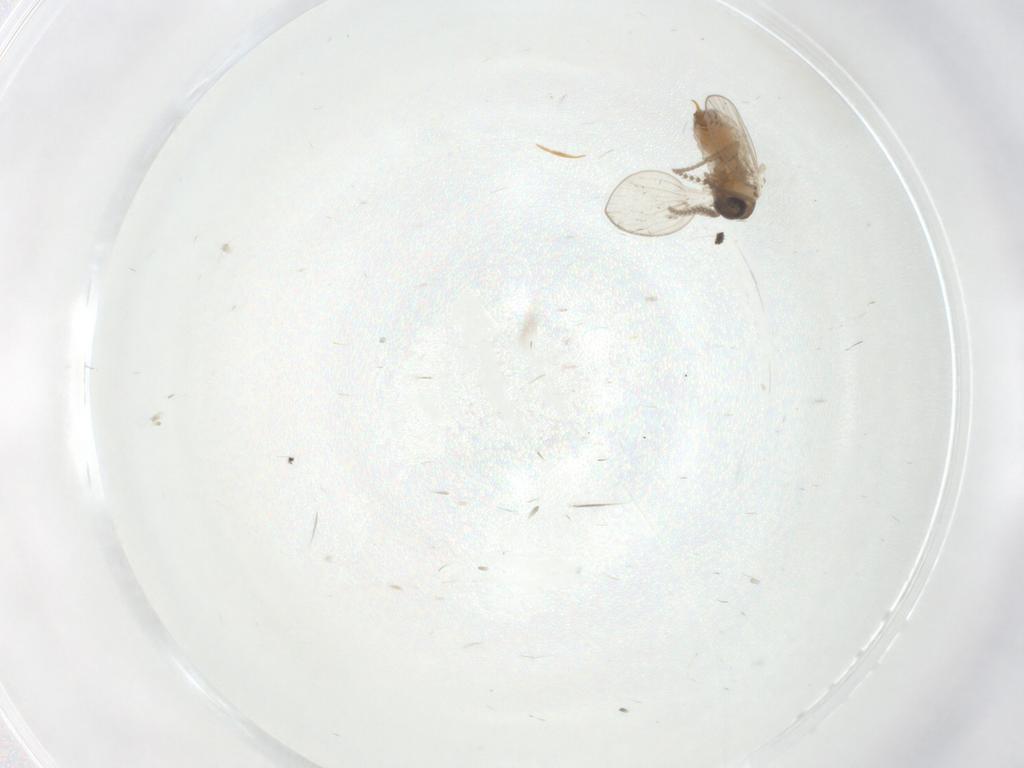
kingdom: Animalia
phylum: Arthropoda
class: Insecta
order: Diptera
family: Psychodidae
